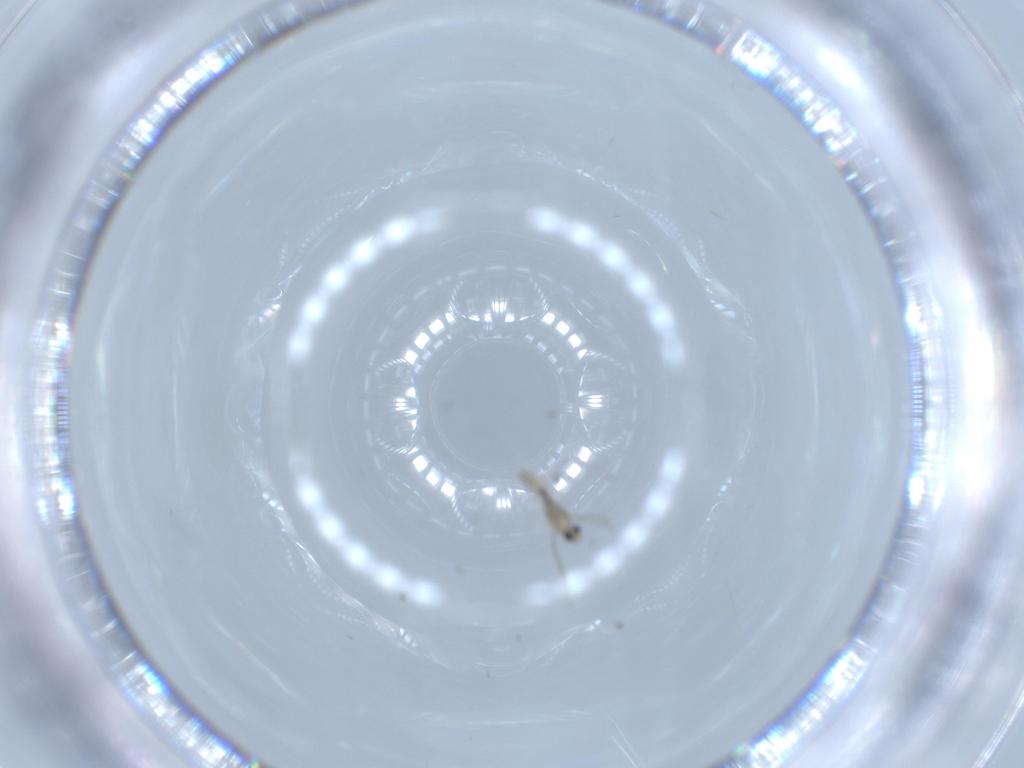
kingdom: Animalia
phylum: Arthropoda
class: Insecta
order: Diptera
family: Cecidomyiidae
